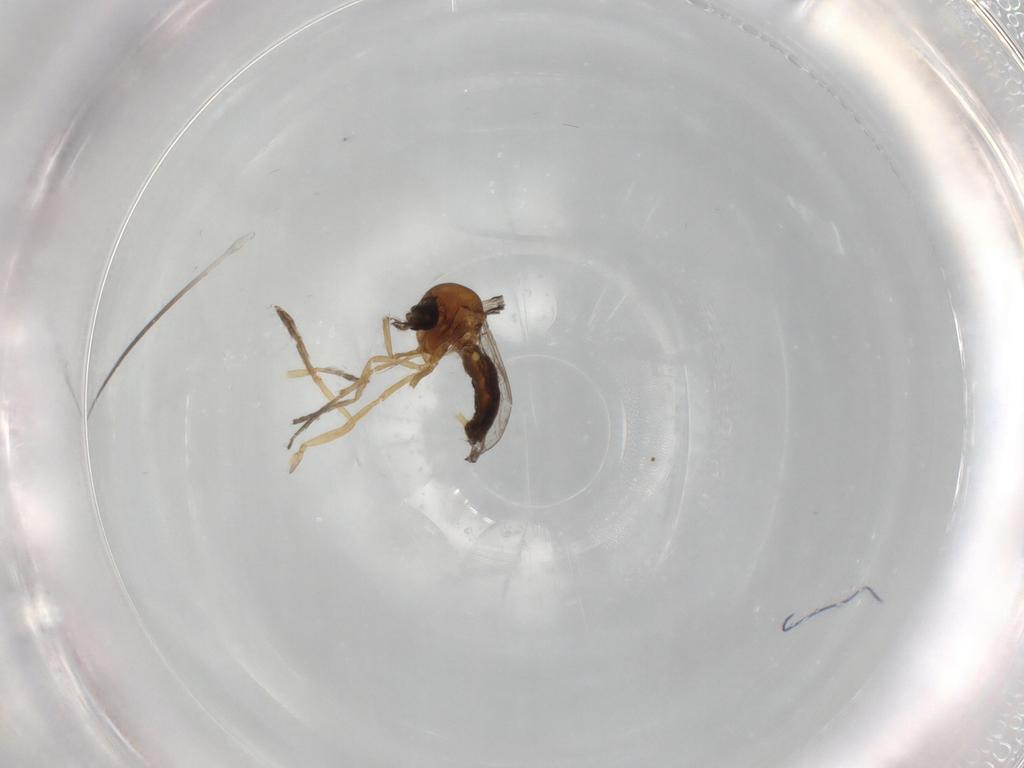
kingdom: Animalia
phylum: Arthropoda
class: Insecta
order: Diptera
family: Ceratopogonidae
